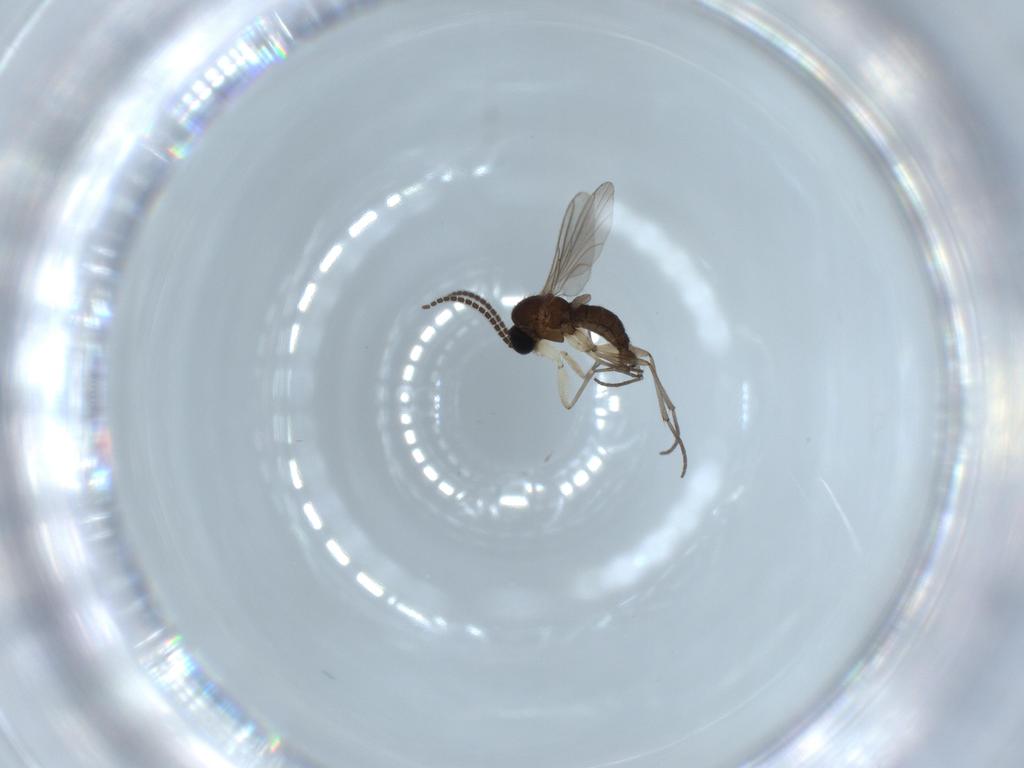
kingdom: Animalia
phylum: Arthropoda
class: Insecta
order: Diptera
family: Sciaridae
